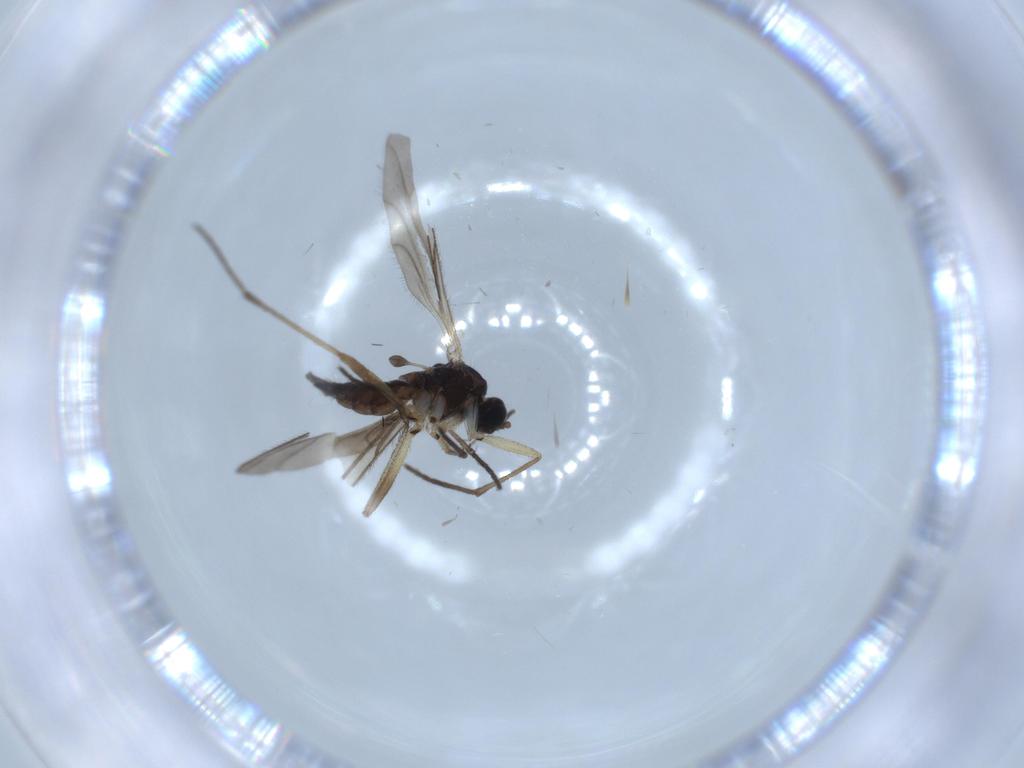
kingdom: Animalia
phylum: Arthropoda
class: Insecta
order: Diptera
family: Sciaridae
